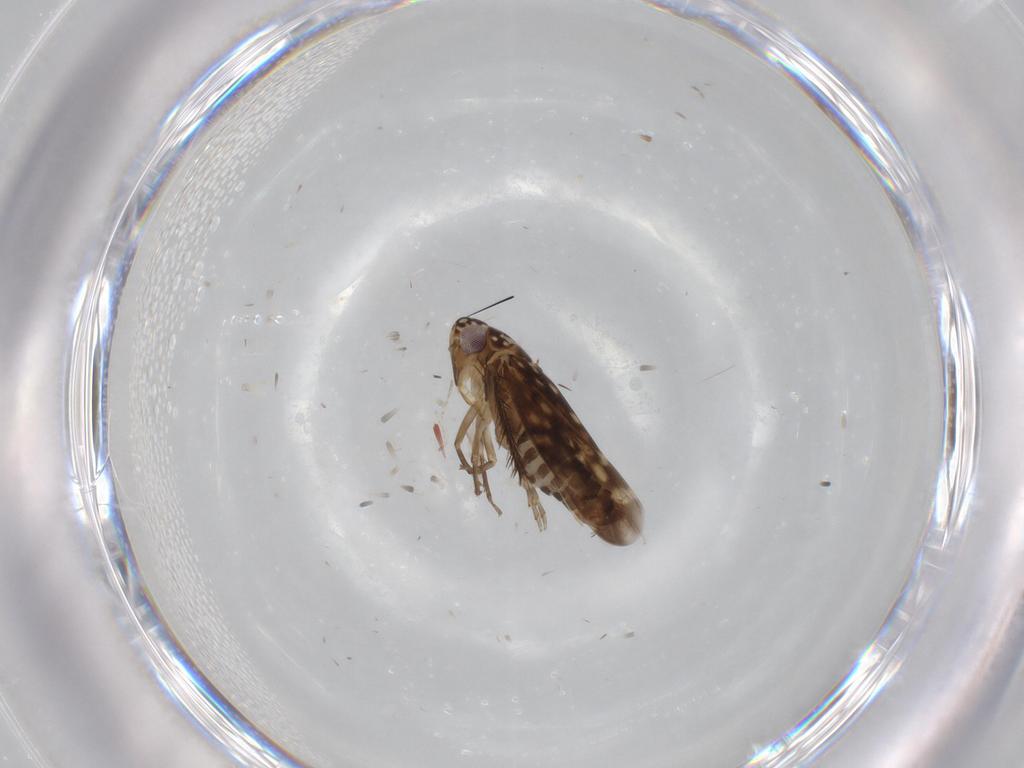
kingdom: Animalia
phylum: Arthropoda
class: Insecta
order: Hemiptera
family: Cicadellidae
